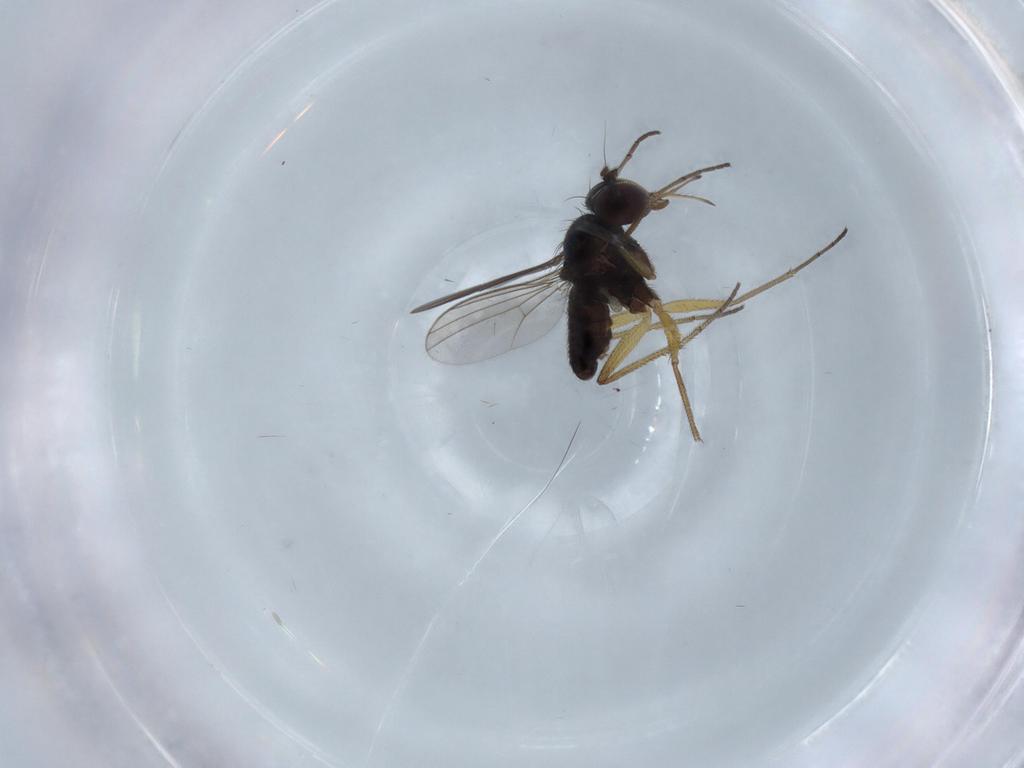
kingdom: Animalia
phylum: Arthropoda
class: Insecta
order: Diptera
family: Dolichopodidae
